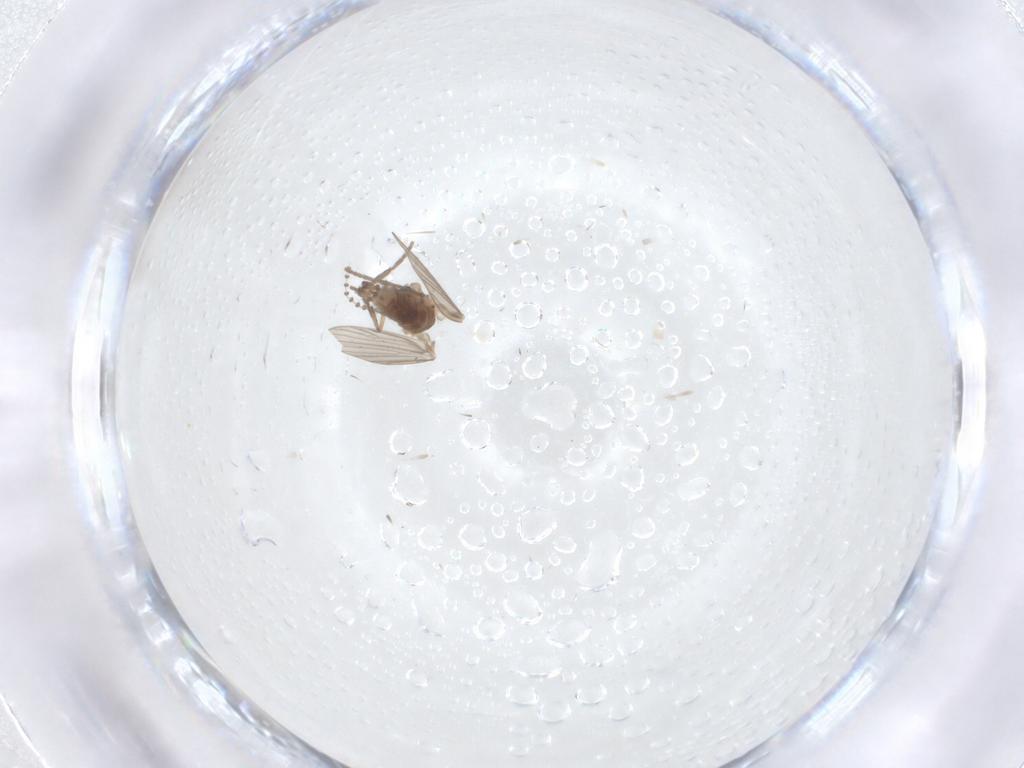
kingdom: Animalia
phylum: Arthropoda
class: Insecta
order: Diptera
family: Psychodidae
